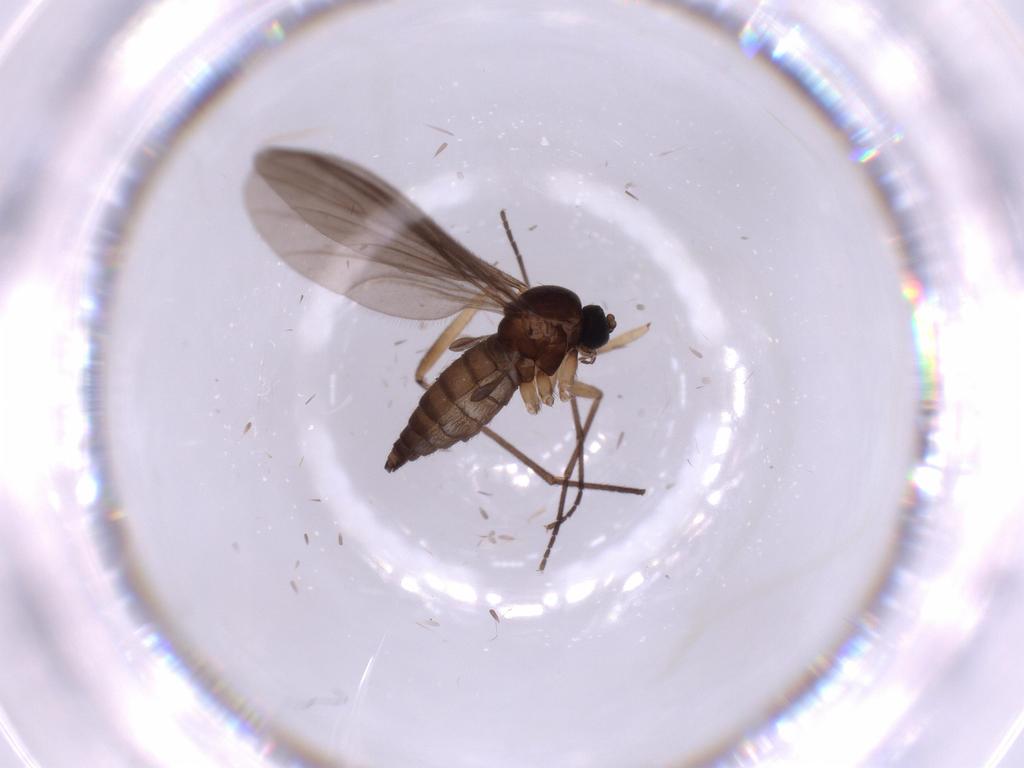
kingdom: Animalia
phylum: Arthropoda
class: Insecta
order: Diptera
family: Sciaridae
